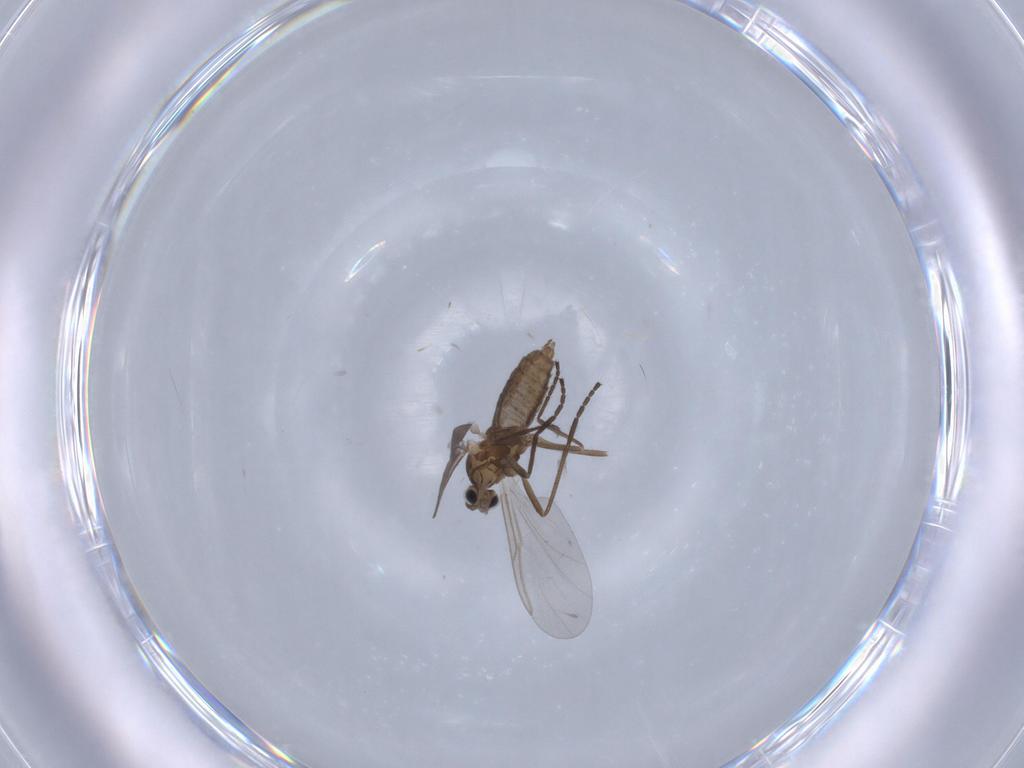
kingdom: Animalia
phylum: Arthropoda
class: Insecta
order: Diptera
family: Cecidomyiidae
